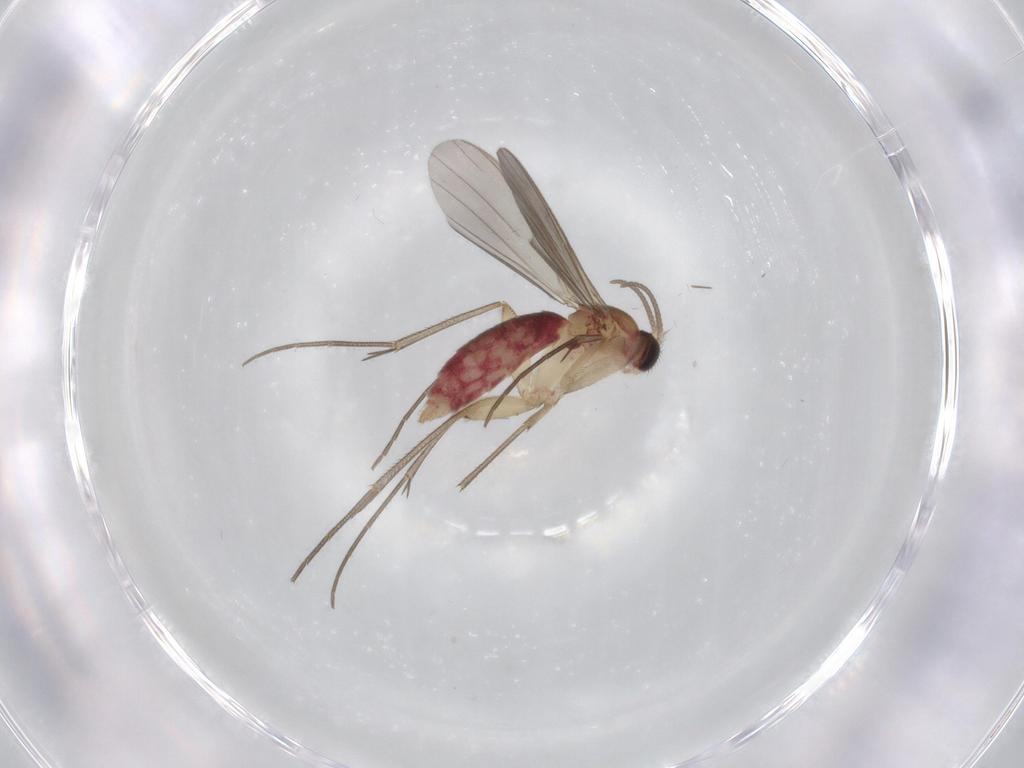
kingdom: Animalia
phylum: Arthropoda
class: Insecta
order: Diptera
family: Mycetophilidae
